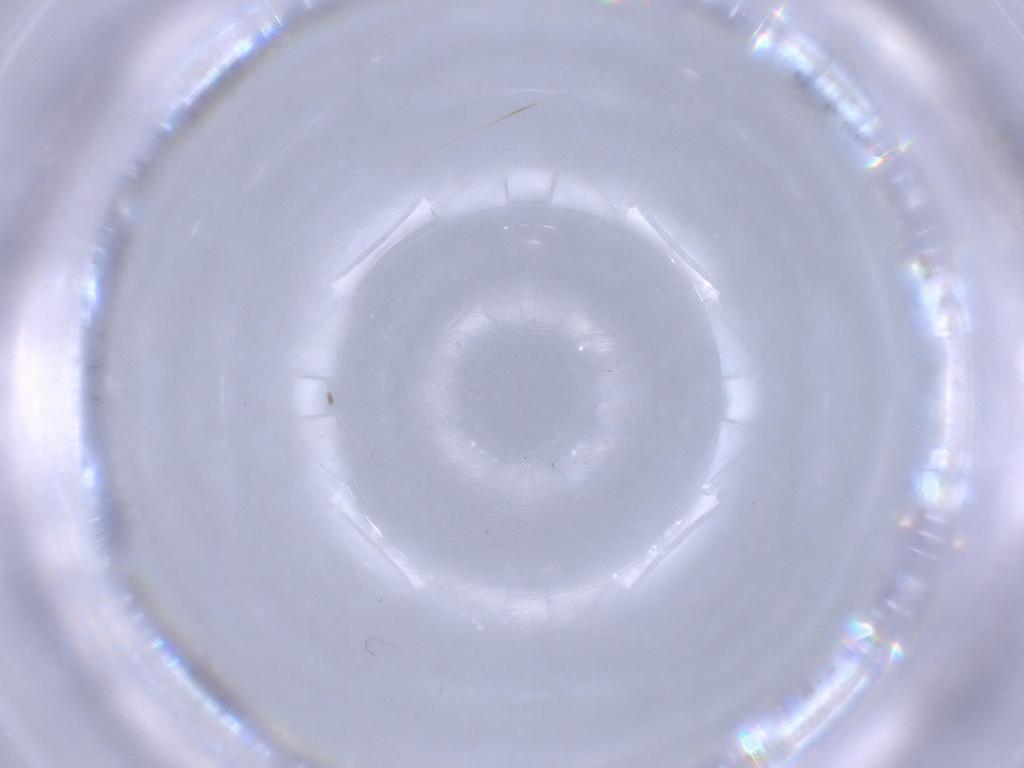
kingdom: Animalia
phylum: Arthropoda
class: Insecta
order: Diptera
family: Cecidomyiidae
